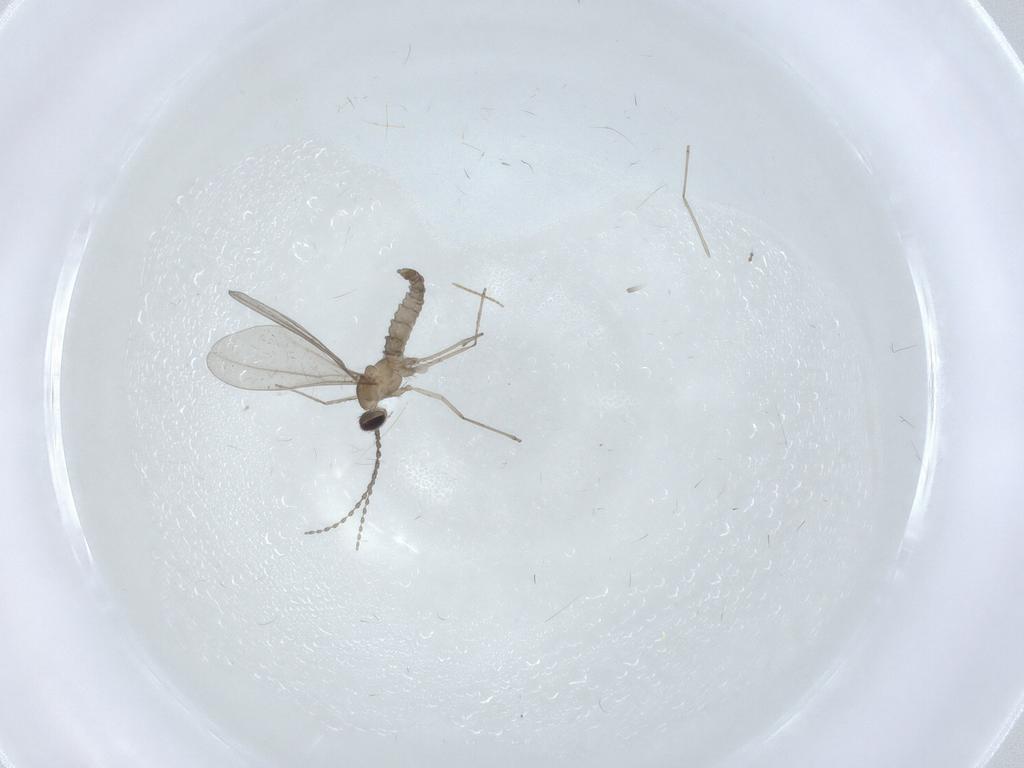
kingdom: Animalia
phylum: Arthropoda
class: Insecta
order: Diptera
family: Cecidomyiidae
